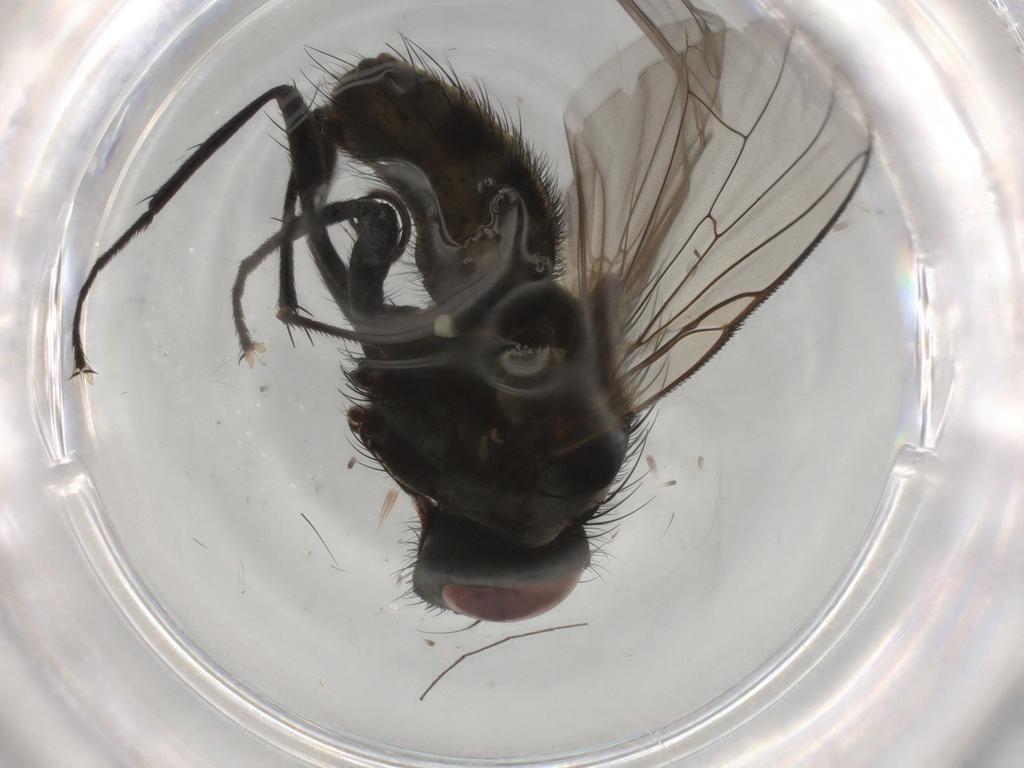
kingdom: Animalia
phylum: Arthropoda
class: Insecta
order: Diptera
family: Muscidae
